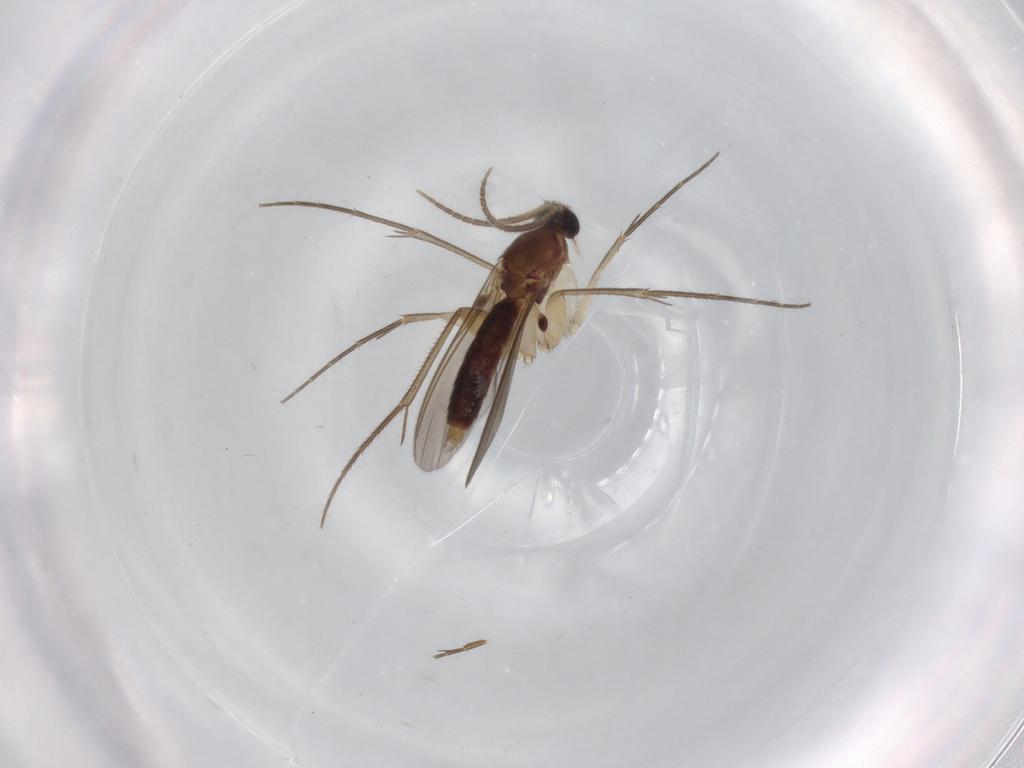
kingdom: Animalia
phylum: Arthropoda
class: Insecta
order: Diptera
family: Mycetophilidae
